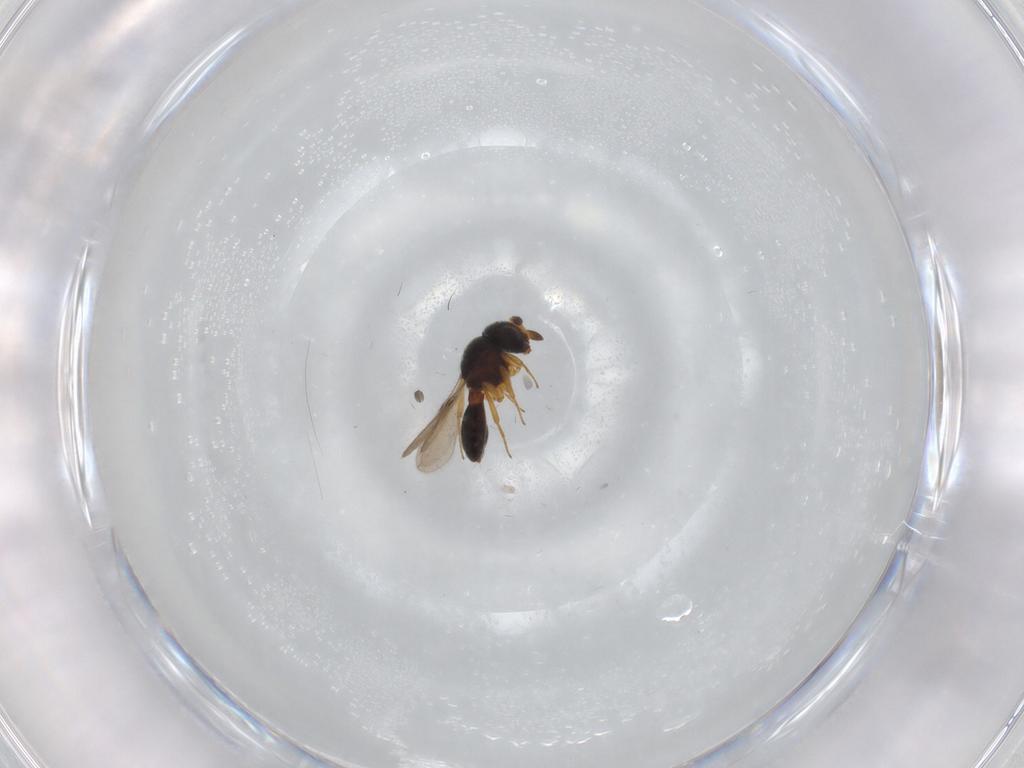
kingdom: Animalia
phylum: Arthropoda
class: Insecta
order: Hymenoptera
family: Scelionidae
